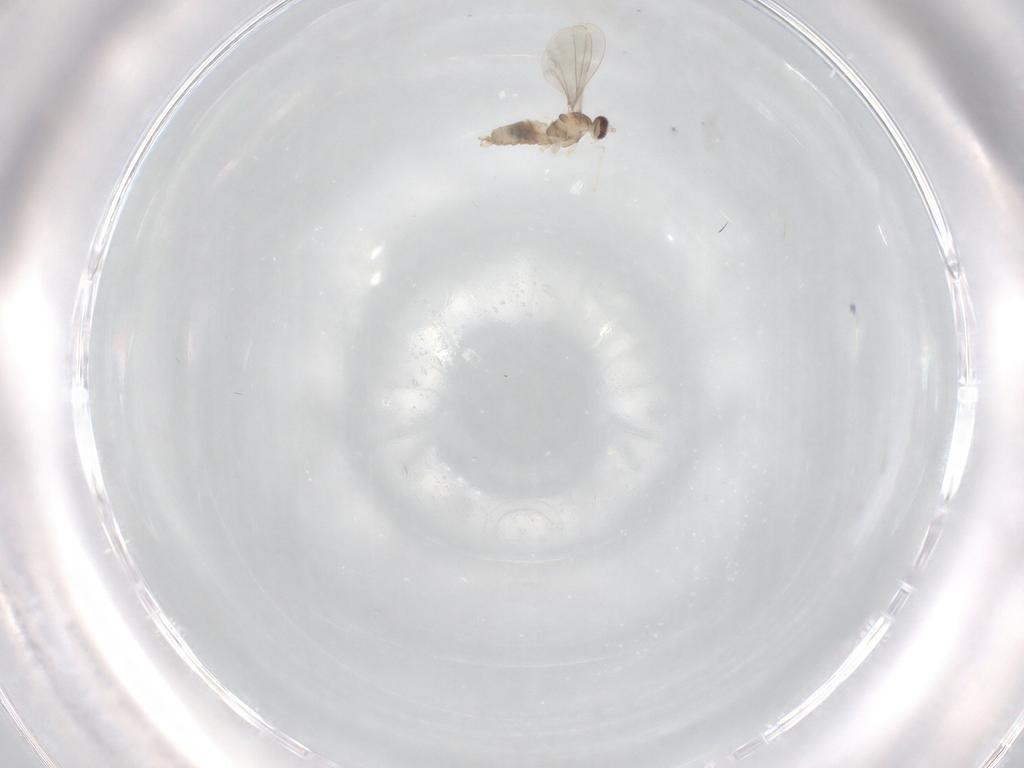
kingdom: Animalia
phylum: Arthropoda
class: Insecta
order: Diptera
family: Cecidomyiidae
